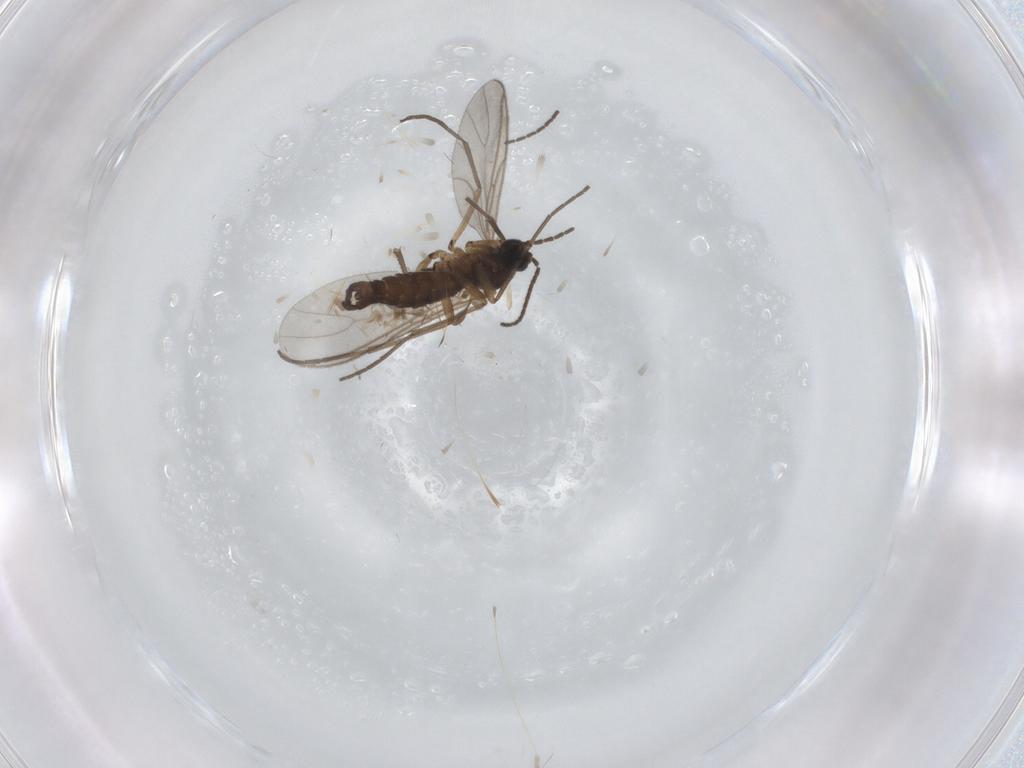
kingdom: Animalia
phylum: Arthropoda
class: Insecta
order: Diptera
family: Sciaridae
